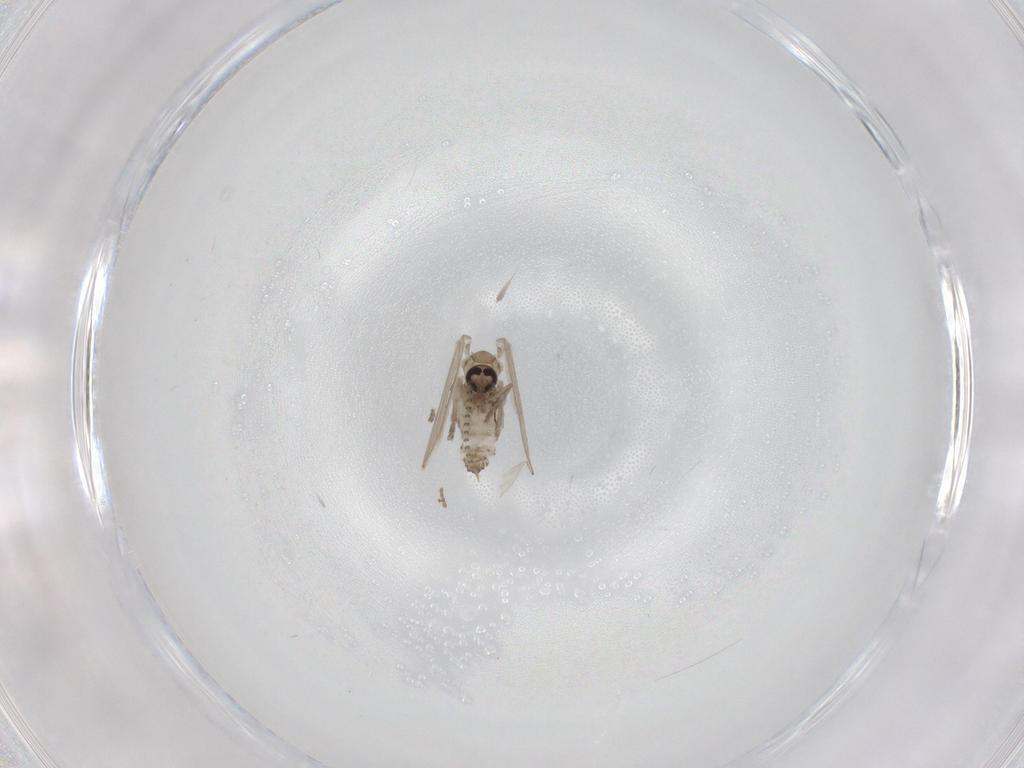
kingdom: Animalia
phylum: Arthropoda
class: Insecta
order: Diptera
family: Psychodidae
